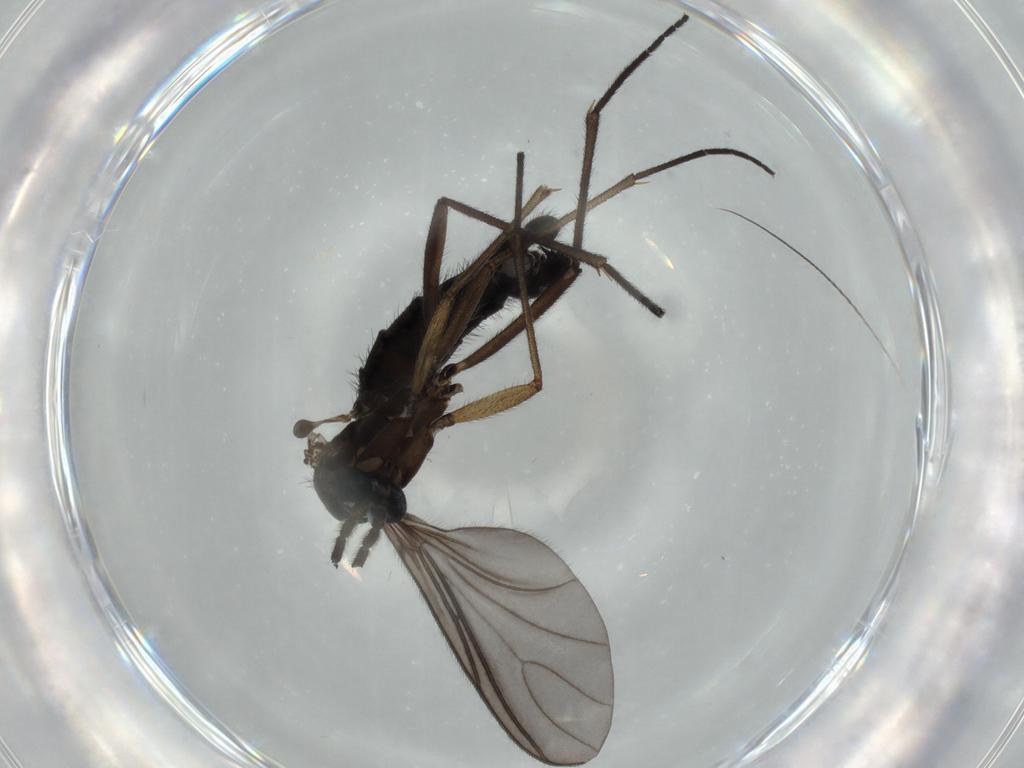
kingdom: Animalia
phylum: Arthropoda
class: Insecta
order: Diptera
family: Sciaridae
